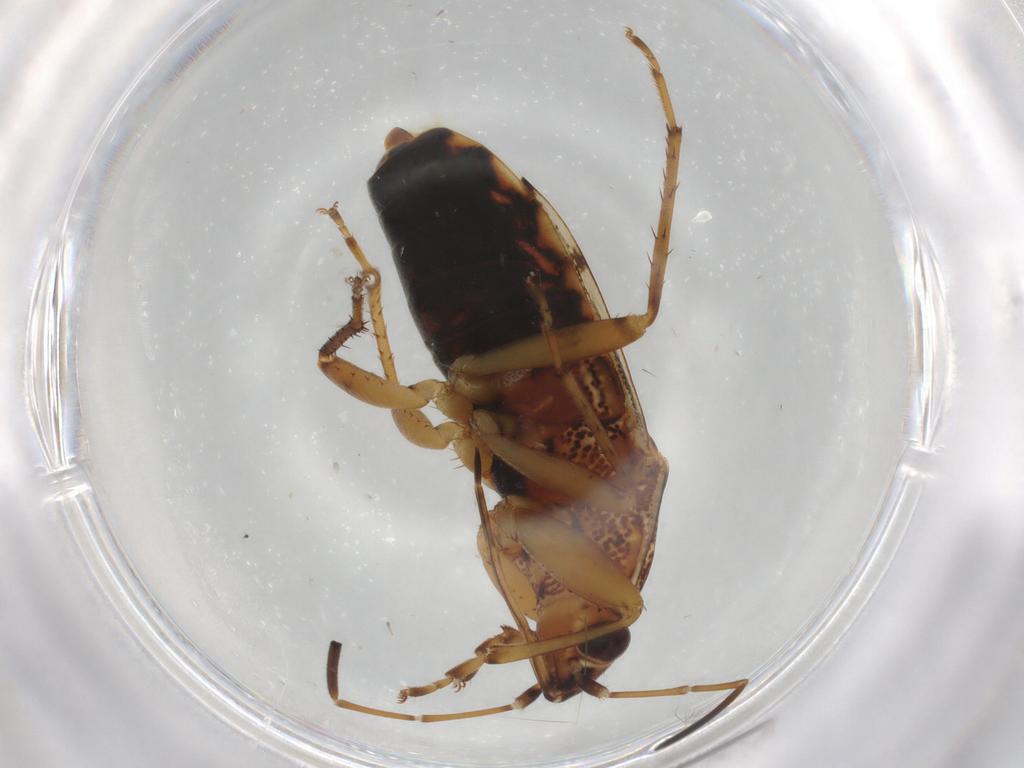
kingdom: Animalia
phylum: Arthropoda
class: Insecta
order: Hemiptera
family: Rhyparochromidae
